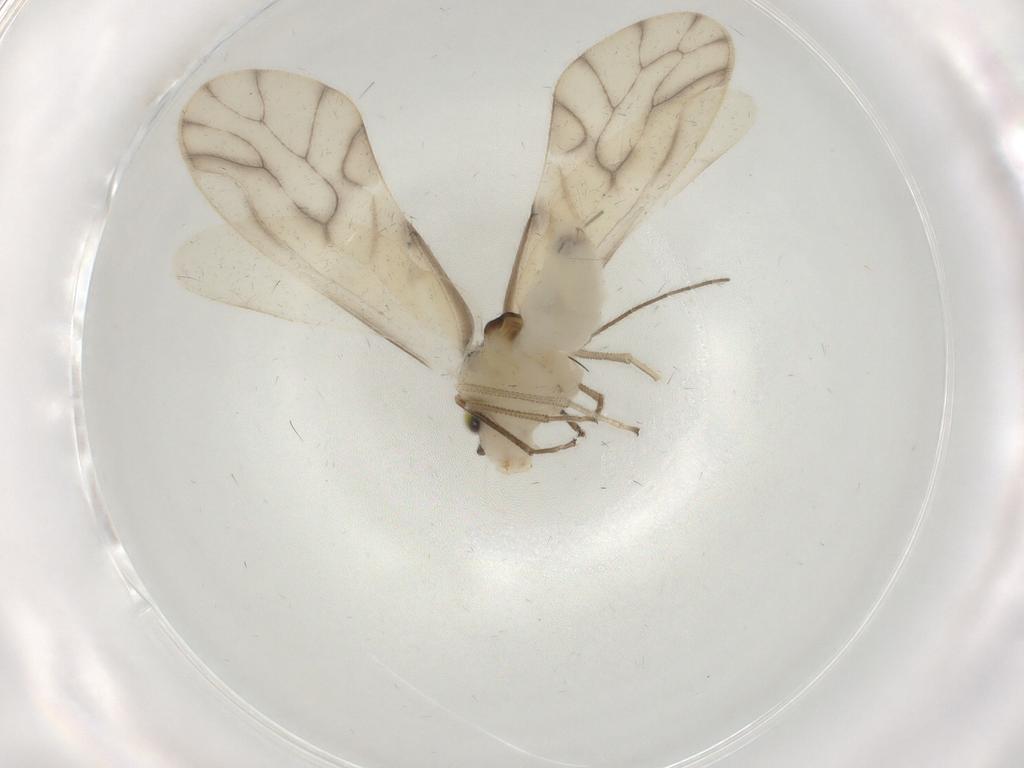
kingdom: Animalia
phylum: Arthropoda
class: Insecta
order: Psocodea
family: Caeciliusidae
